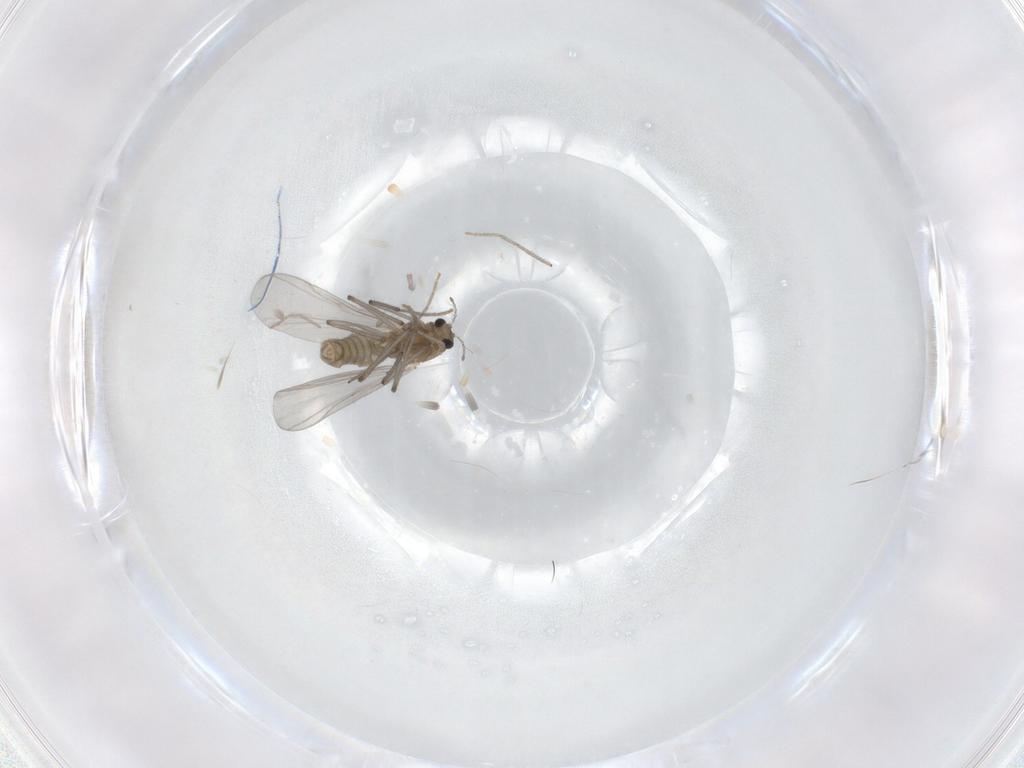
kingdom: Animalia
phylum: Arthropoda
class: Insecta
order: Diptera
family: Chironomidae
